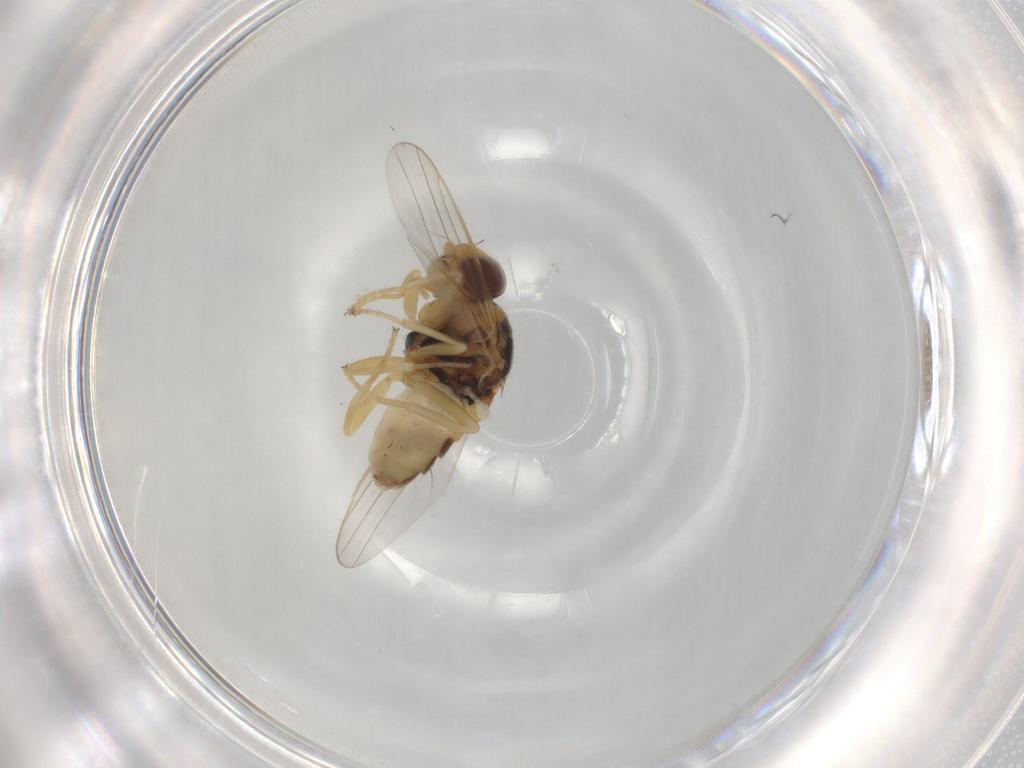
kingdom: Animalia
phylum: Arthropoda
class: Insecta
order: Diptera
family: Chloropidae
